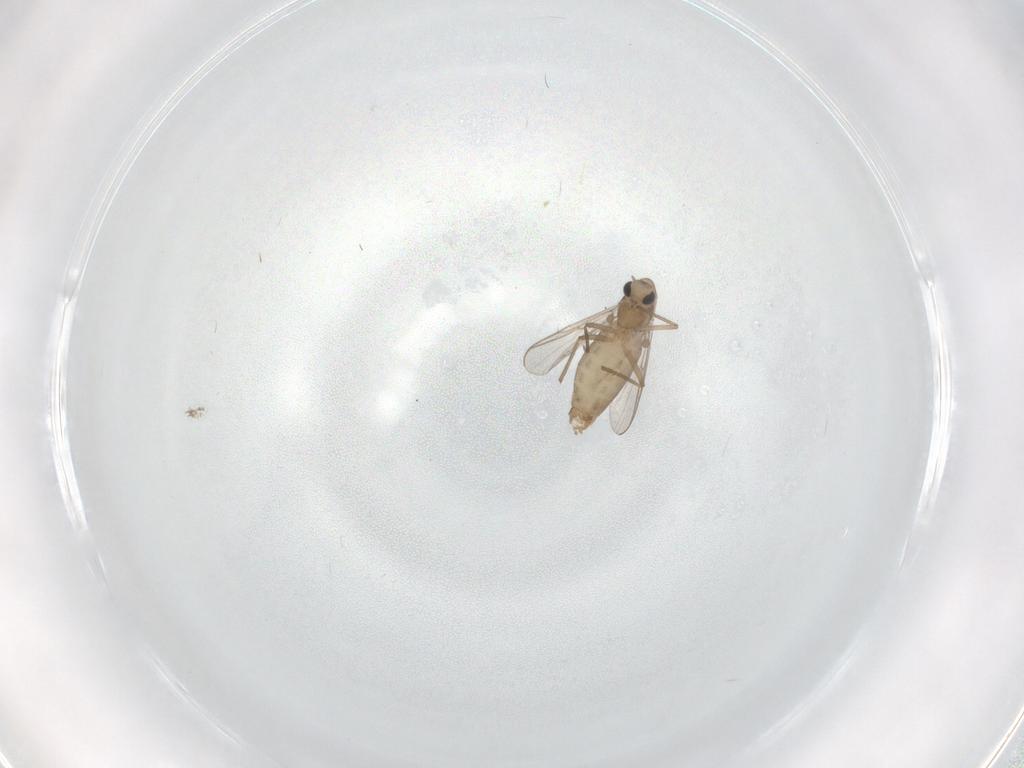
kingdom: Animalia
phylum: Arthropoda
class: Insecta
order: Diptera
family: Chironomidae
